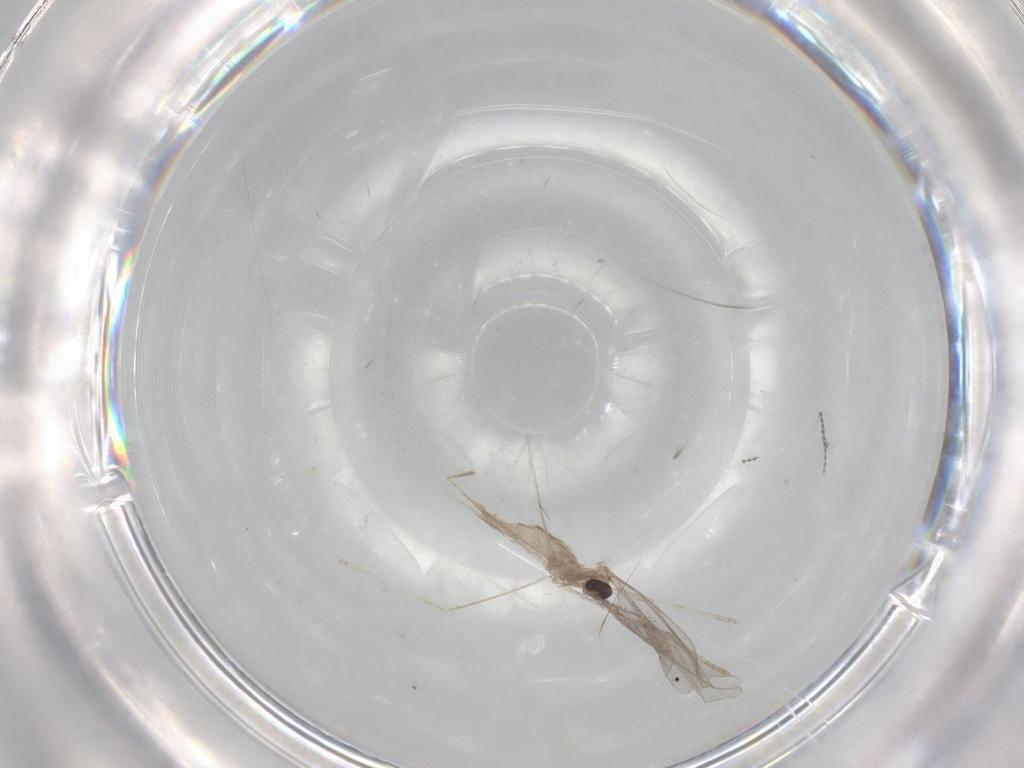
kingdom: Animalia
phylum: Arthropoda
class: Insecta
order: Diptera
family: Cecidomyiidae
